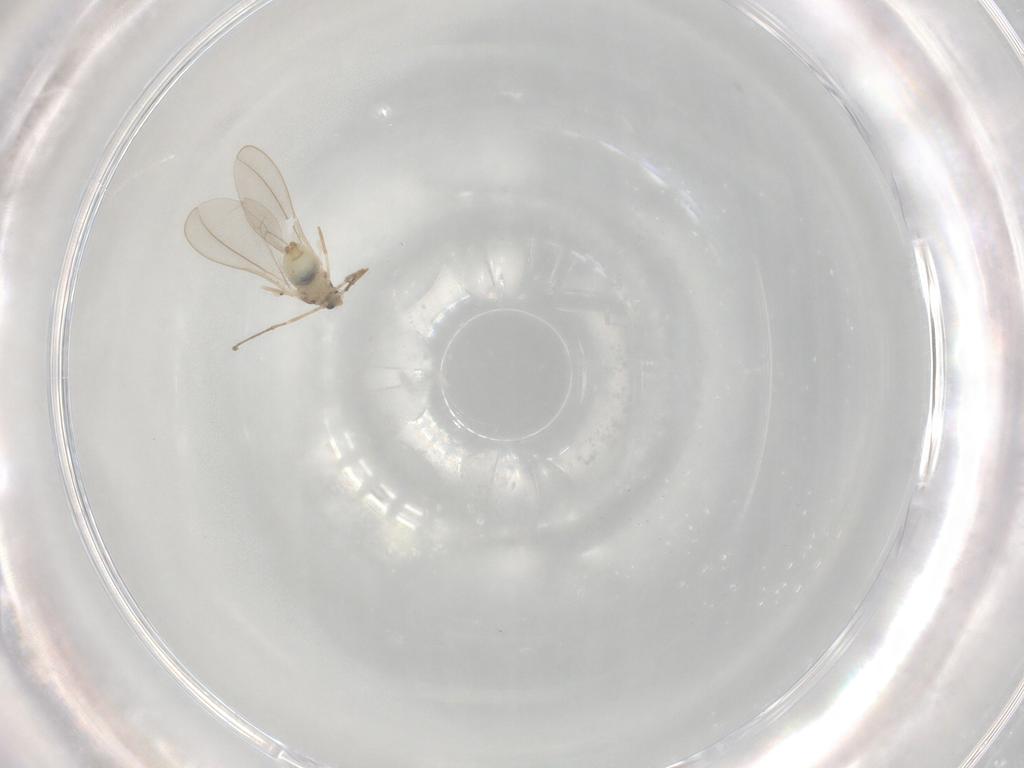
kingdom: Animalia
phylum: Arthropoda
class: Insecta
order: Diptera
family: Cecidomyiidae
